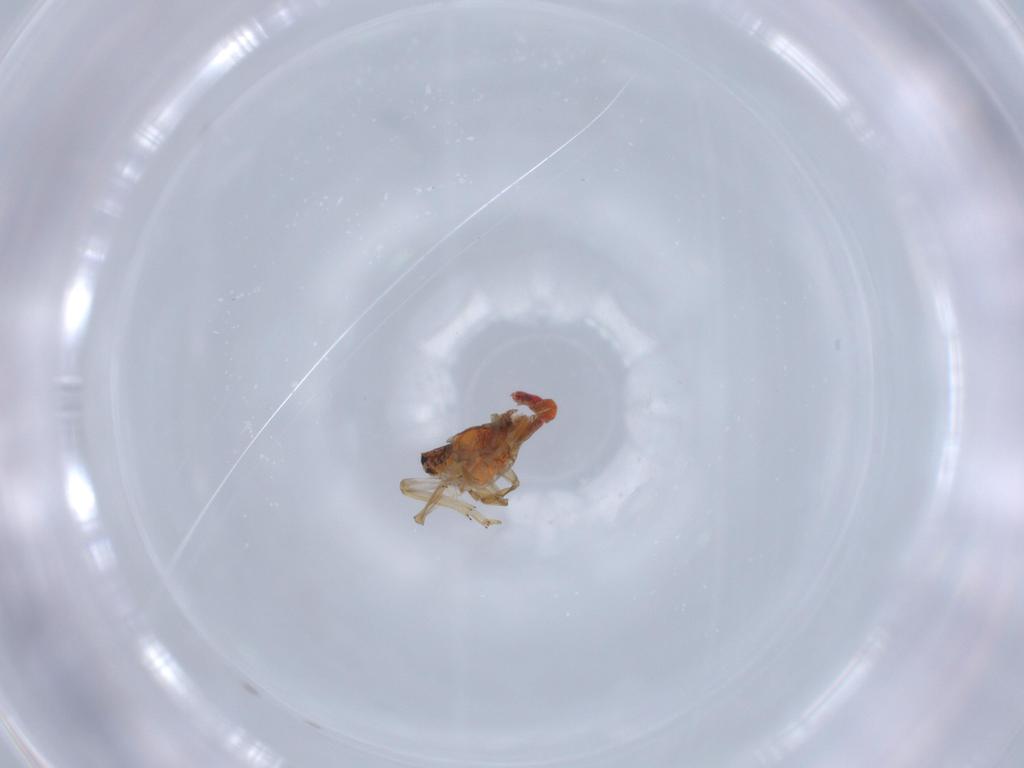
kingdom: Animalia
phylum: Arthropoda
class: Insecta
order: Hemiptera
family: Fulgoroidea_incertae_sedis
